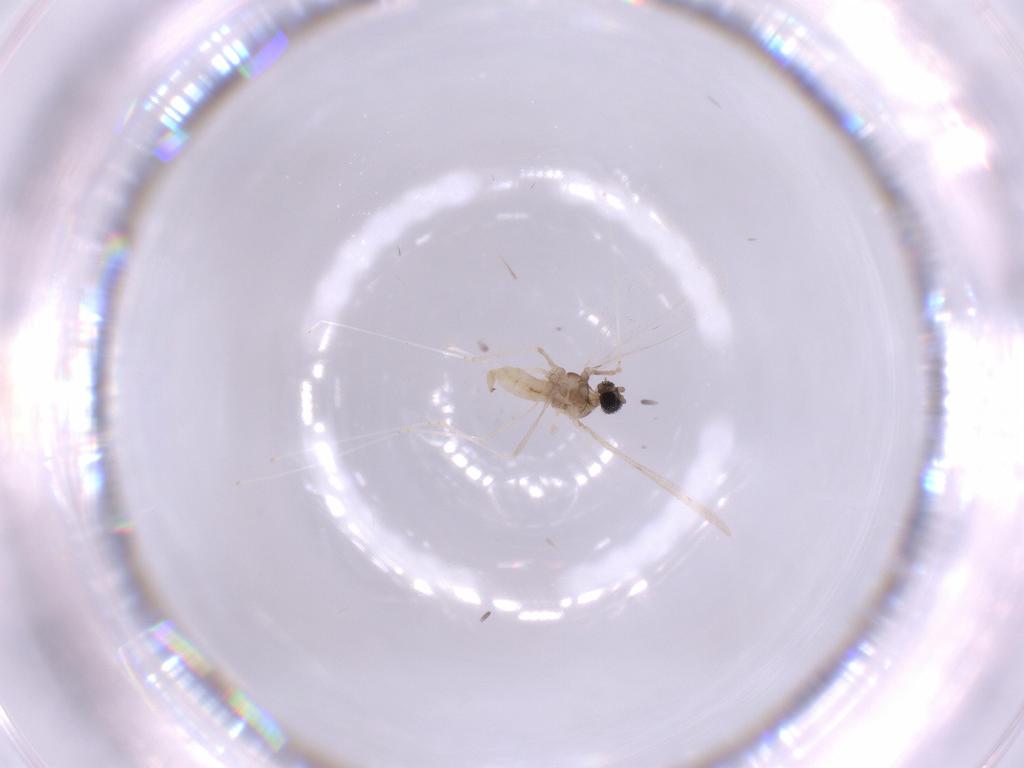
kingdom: Animalia
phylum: Arthropoda
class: Insecta
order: Diptera
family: Cecidomyiidae
